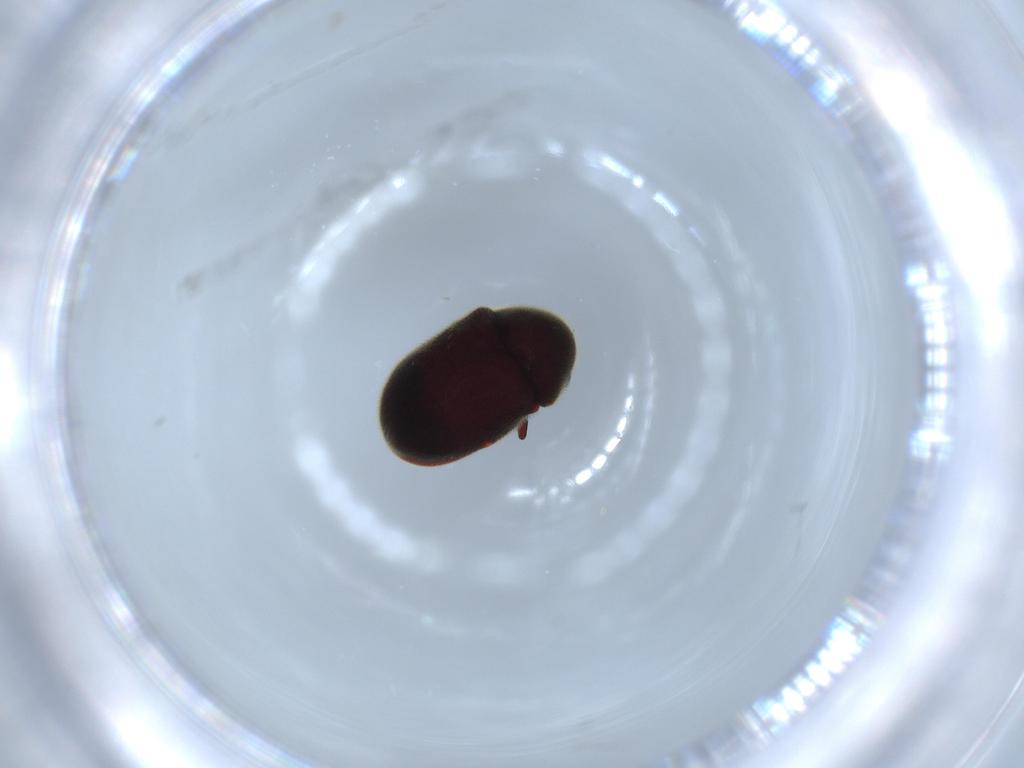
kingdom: Animalia
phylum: Arthropoda
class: Insecta
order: Coleoptera
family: Ptinidae
